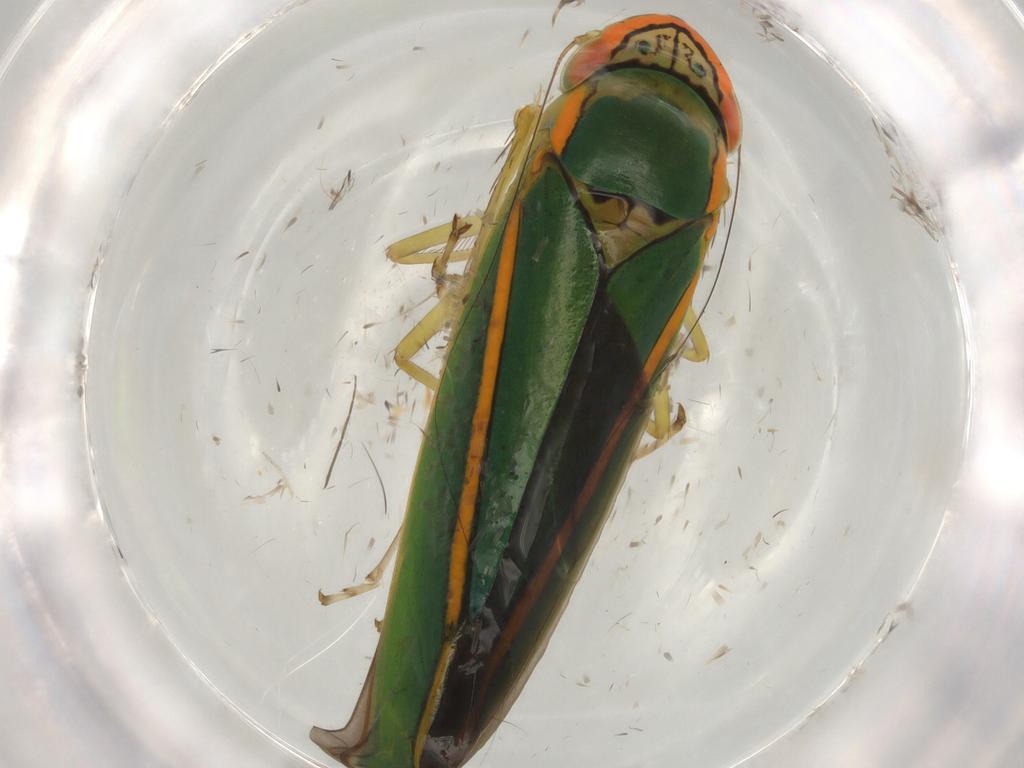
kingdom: Animalia
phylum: Arthropoda
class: Insecta
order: Hemiptera
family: Cicadellidae
